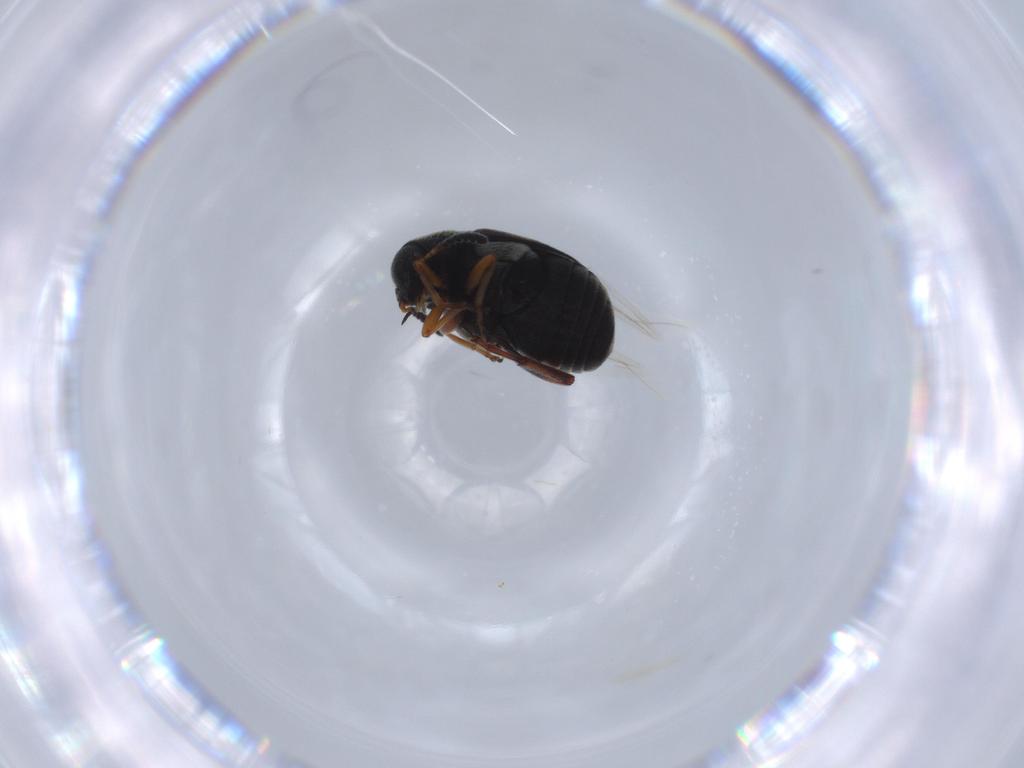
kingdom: Animalia
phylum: Arthropoda
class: Insecta
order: Coleoptera
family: Chrysomelidae
